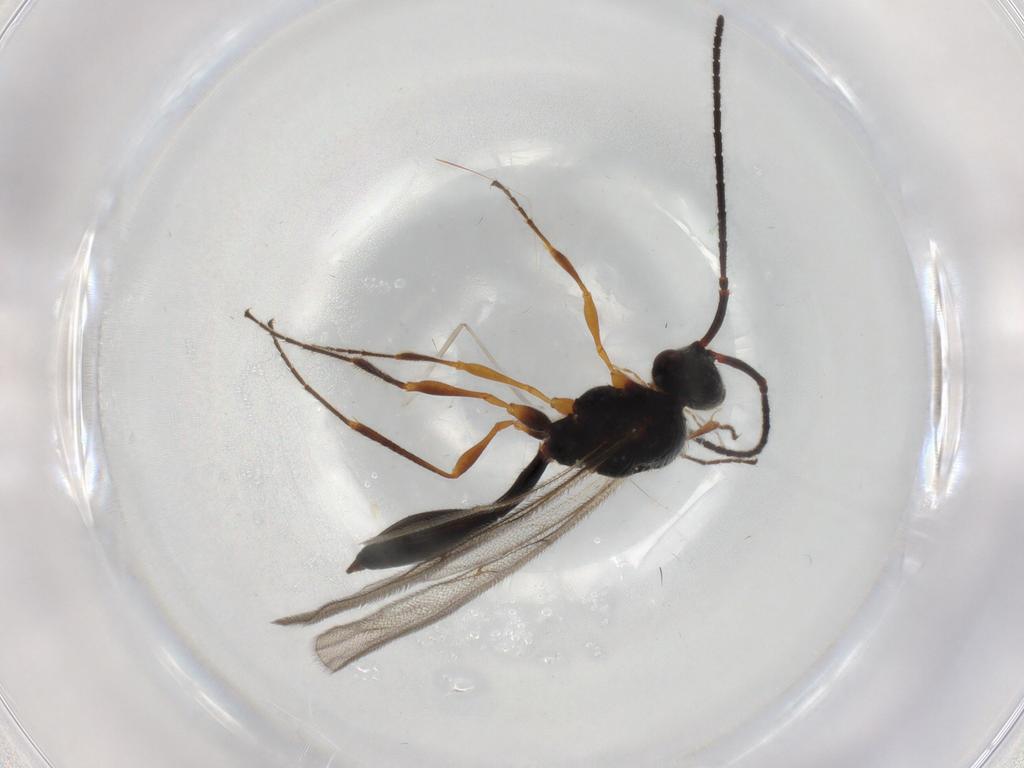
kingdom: Animalia
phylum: Arthropoda
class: Insecta
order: Hymenoptera
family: Diapriidae
